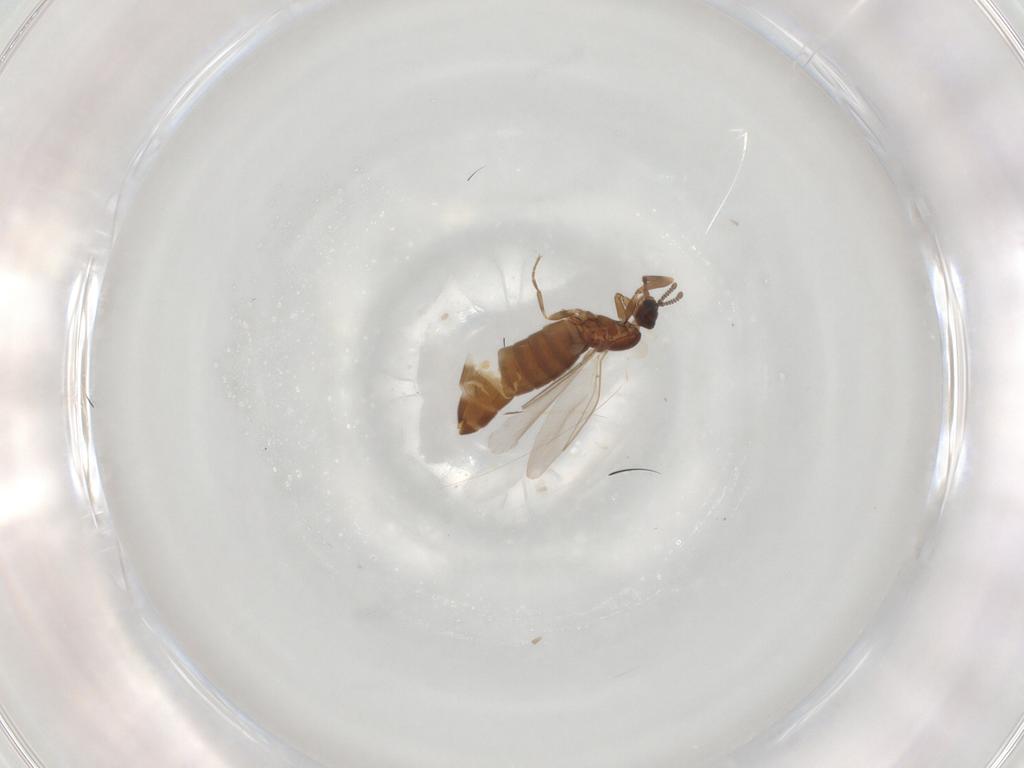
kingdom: Animalia
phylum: Arthropoda
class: Insecta
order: Diptera
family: Scatopsidae
